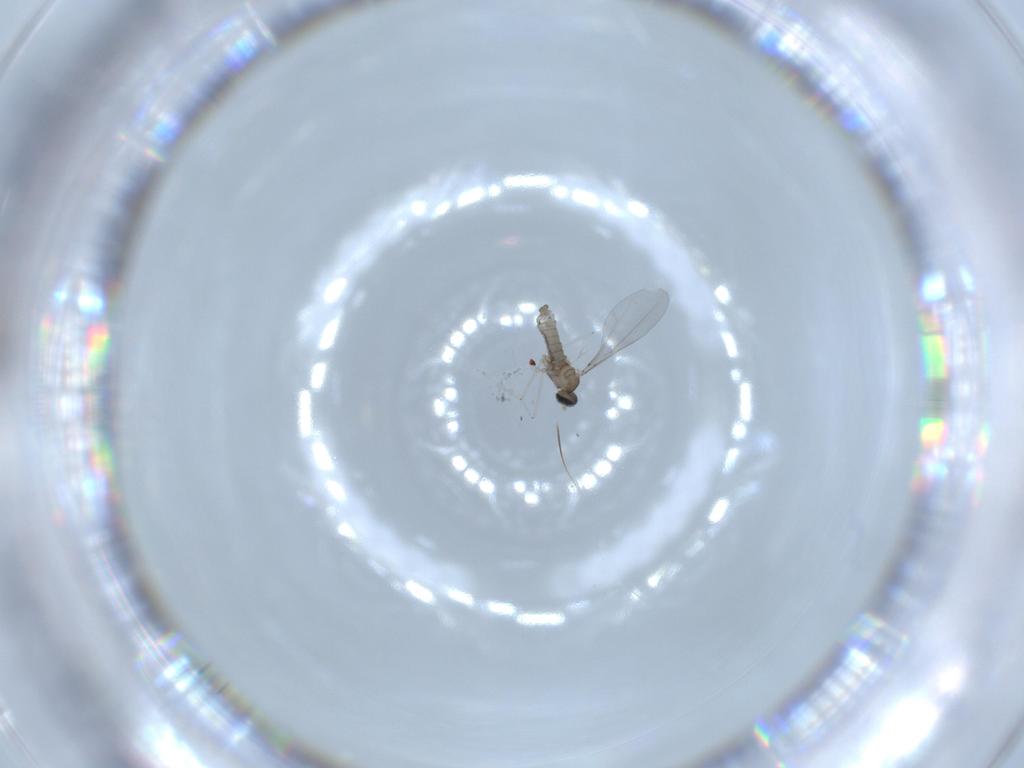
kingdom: Animalia
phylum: Arthropoda
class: Insecta
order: Diptera
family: Cecidomyiidae
